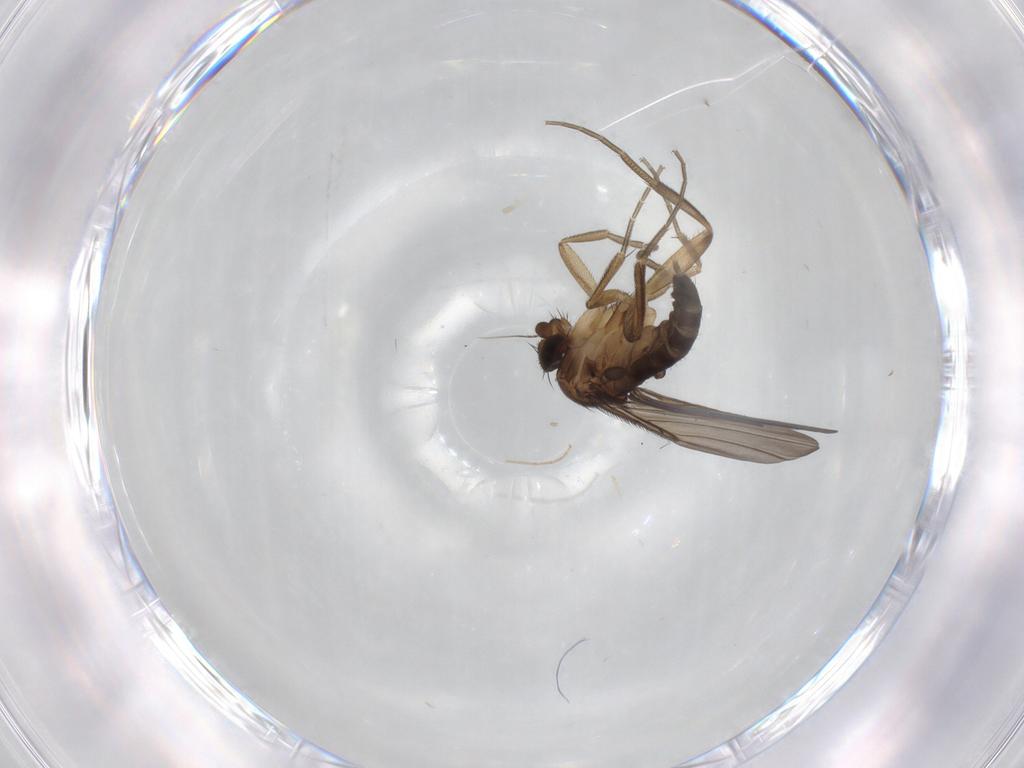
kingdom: Animalia
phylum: Arthropoda
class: Insecta
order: Diptera
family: Phoridae
